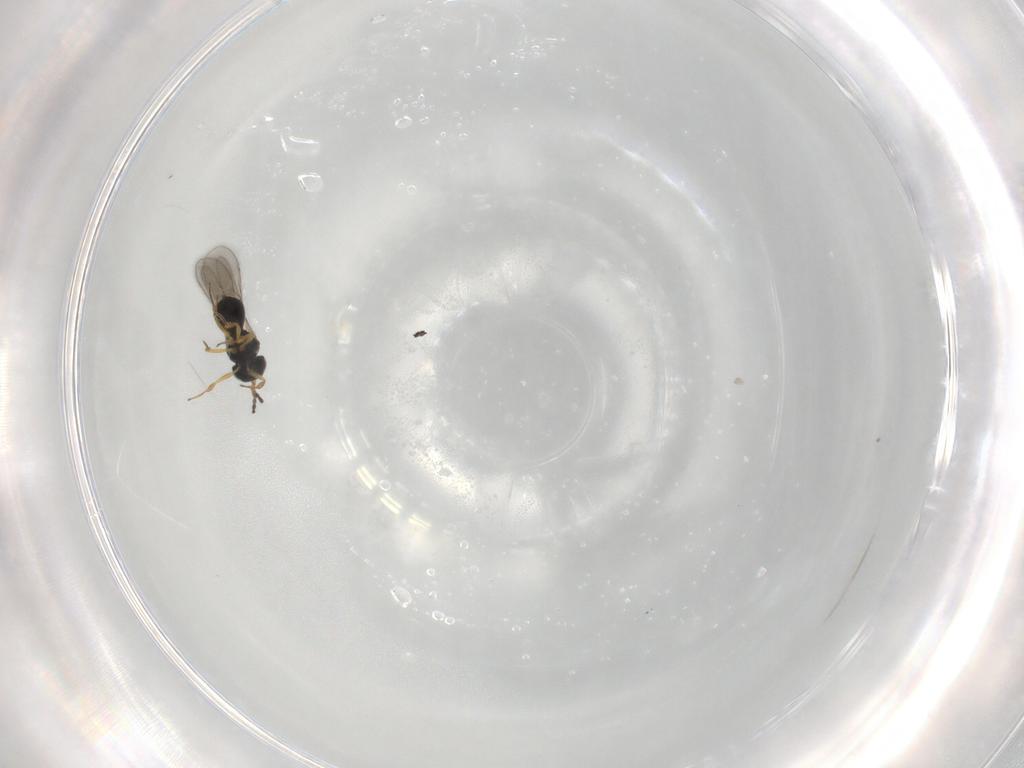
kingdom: Animalia
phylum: Arthropoda
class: Insecta
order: Hymenoptera
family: Scelionidae
